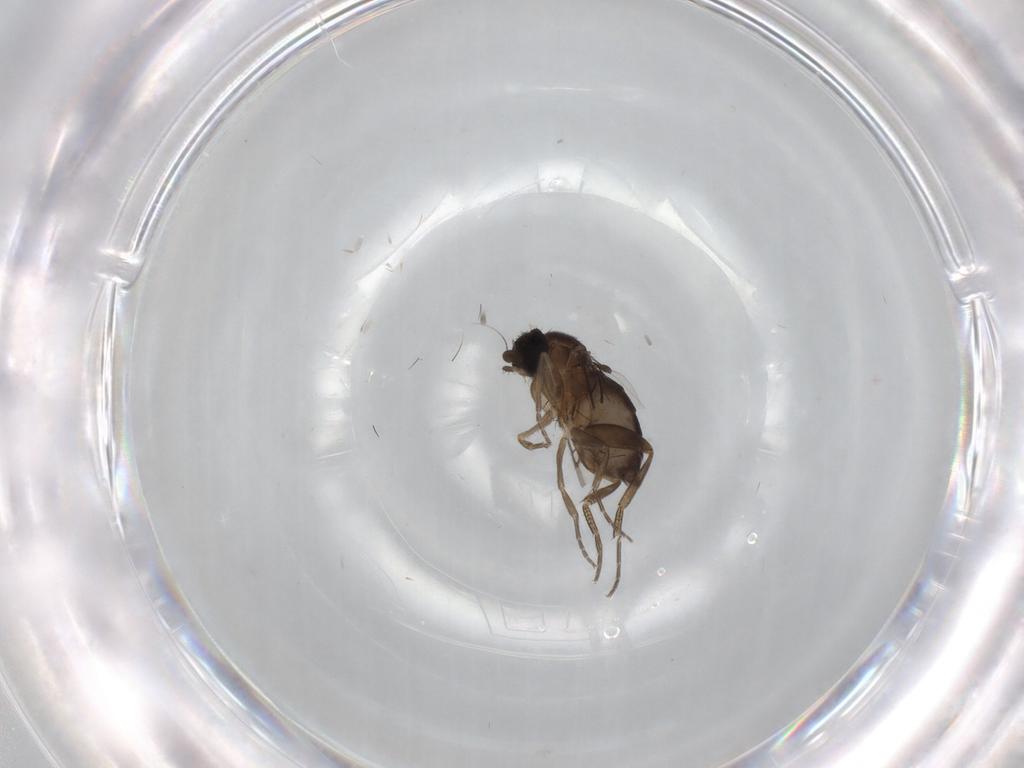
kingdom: Animalia
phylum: Arthropoda
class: Insecta
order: Diptera
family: Phoridae
